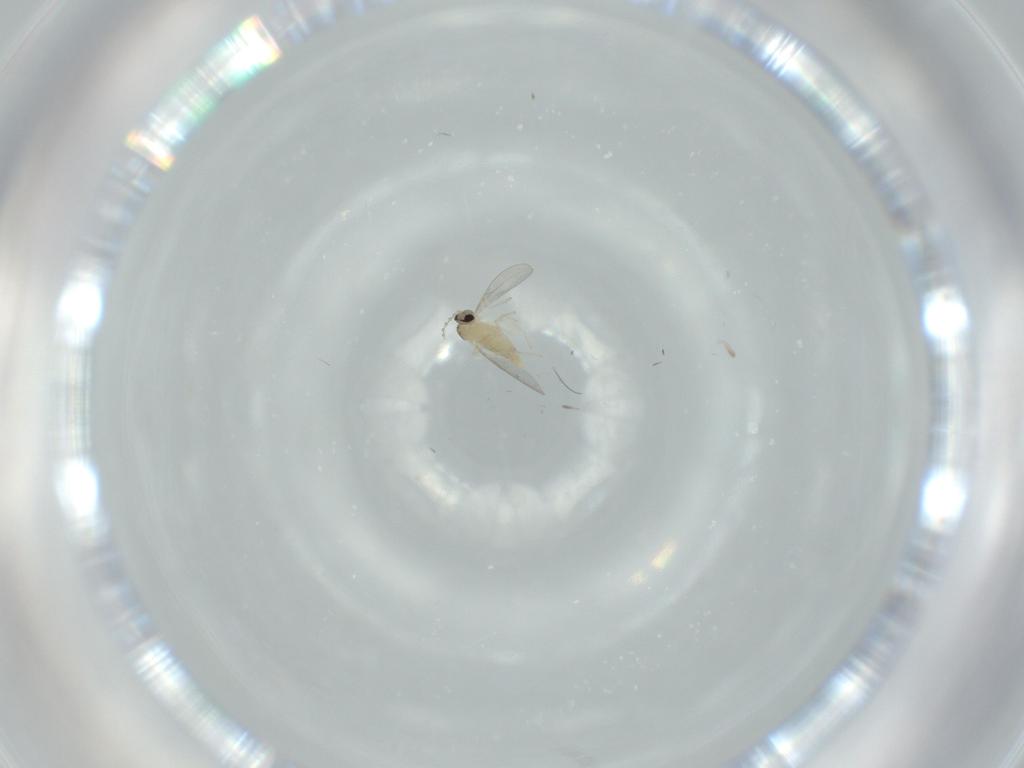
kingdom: Animalia
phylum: Arthropoda
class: Insecta
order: Diptera
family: Cecidomyiidae
